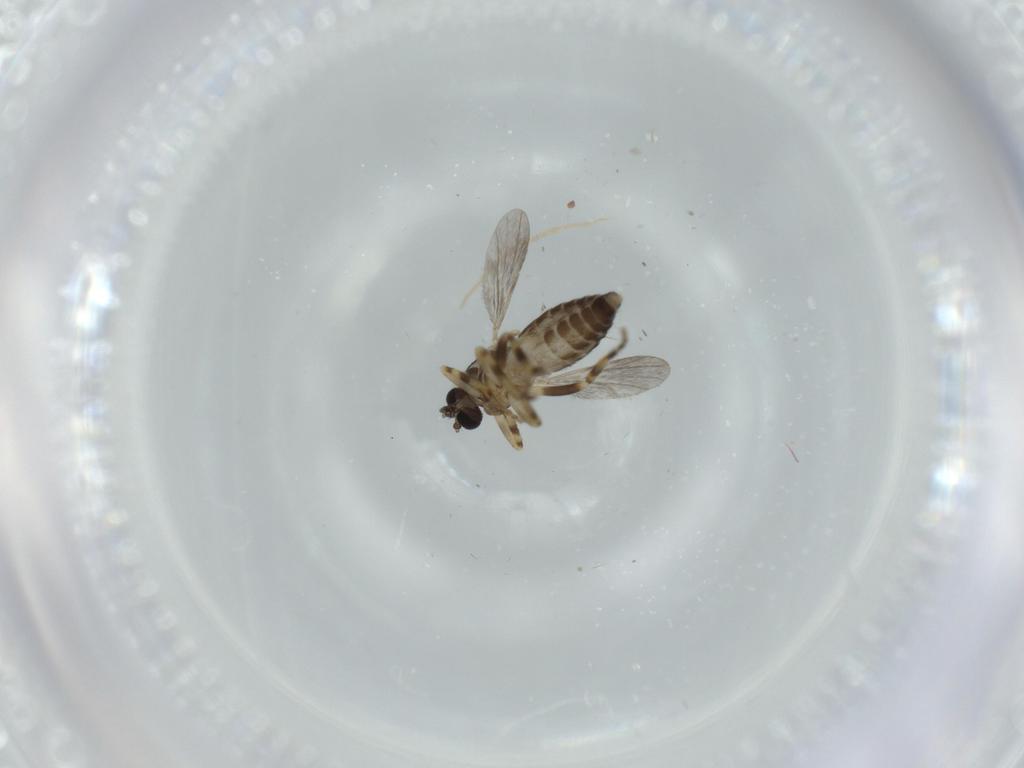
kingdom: Animalia
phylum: Arthropoda
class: Insecta
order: Diptera
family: Ceratopogonidae
